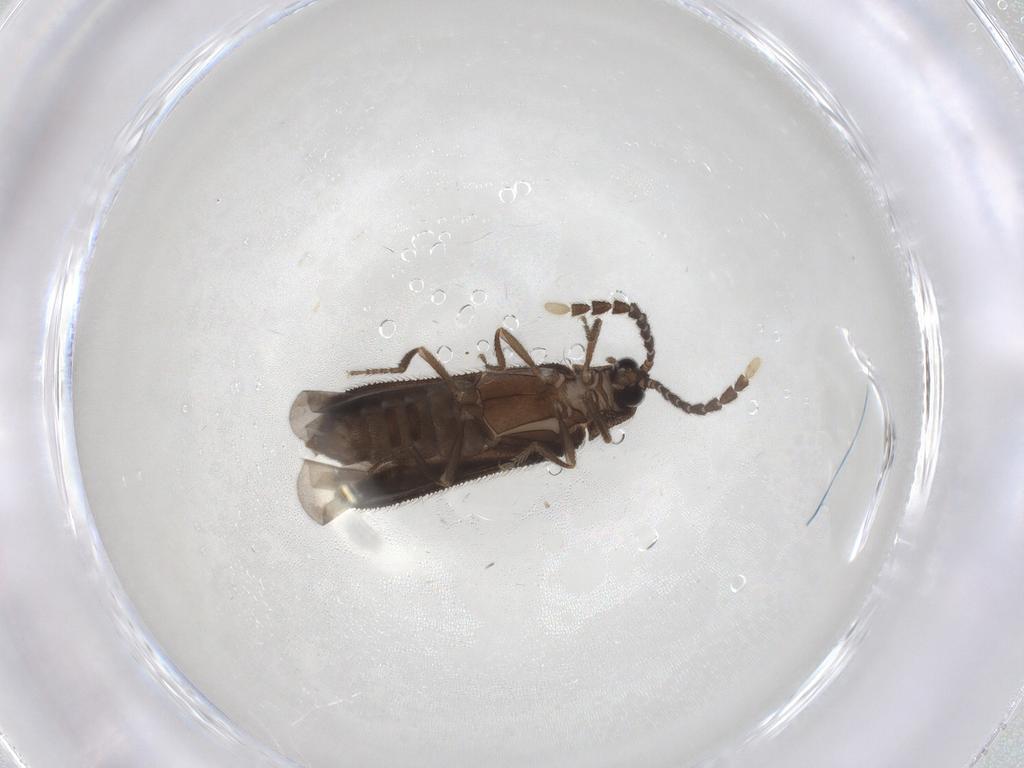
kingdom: Animalia
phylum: Arthropoda
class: Insecta
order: Coleoptera
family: Lycidae
